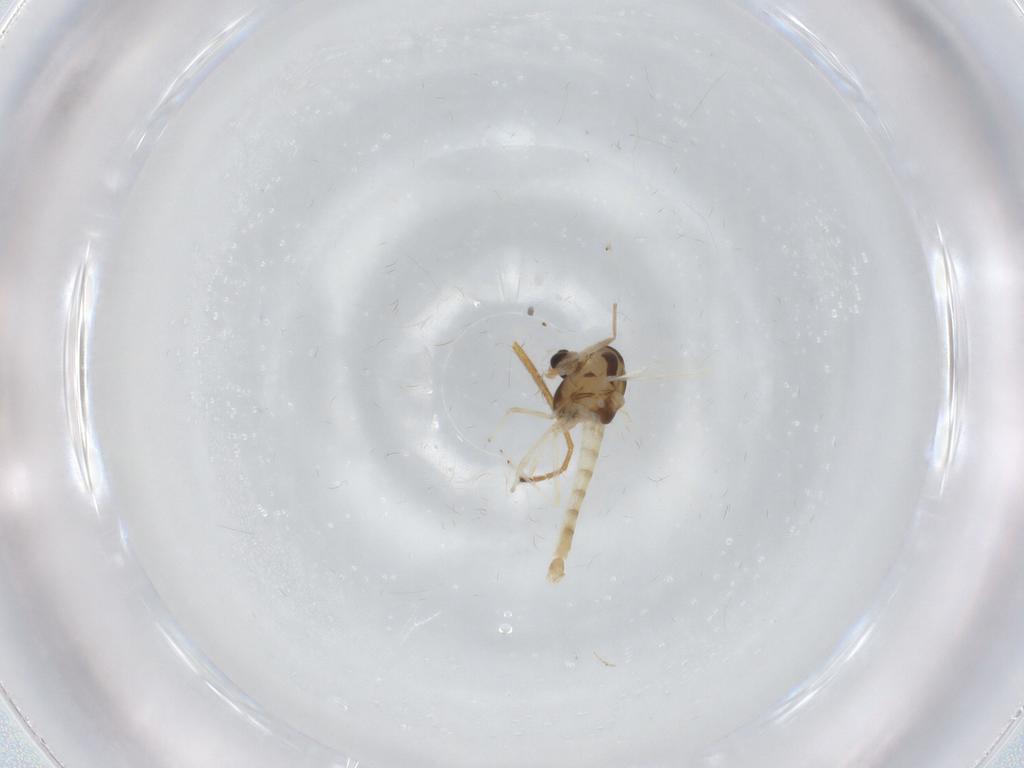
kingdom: Animalia
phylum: Arthropoda
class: Insecta
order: Diptera
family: Chironomidae
